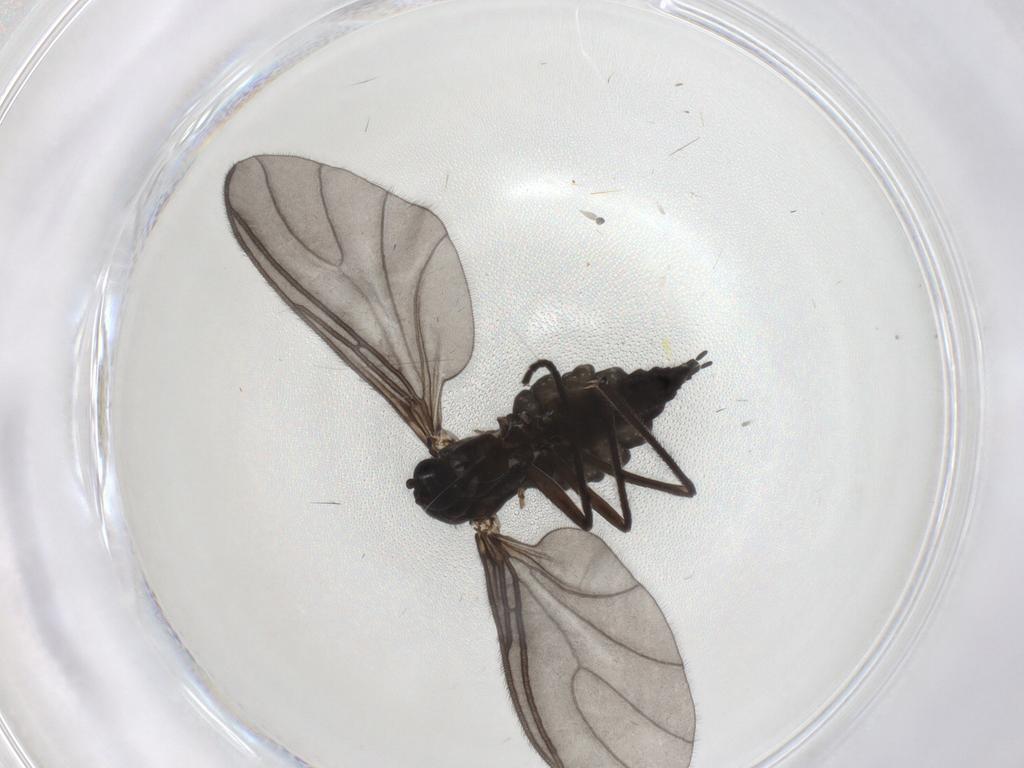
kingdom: Animalia
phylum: Arthropoda
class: Insecta
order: Diptera
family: Sciaridae
